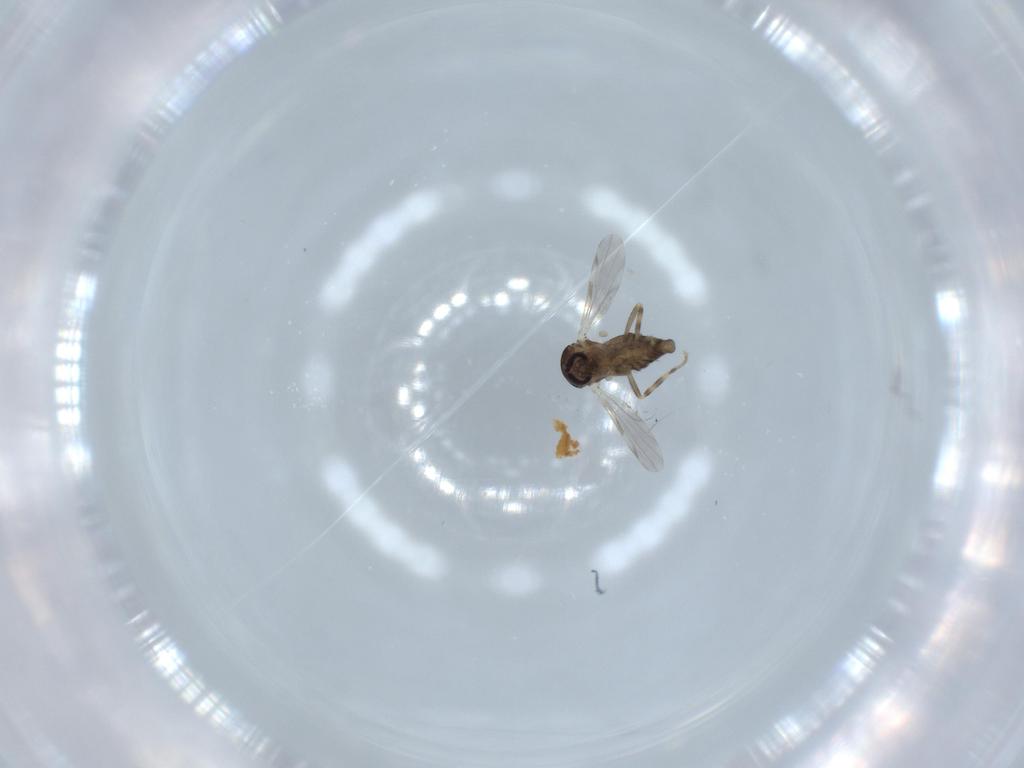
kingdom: Animalia
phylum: Arthropoda
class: Insecta
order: Diptera
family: Ceratopogonidae
